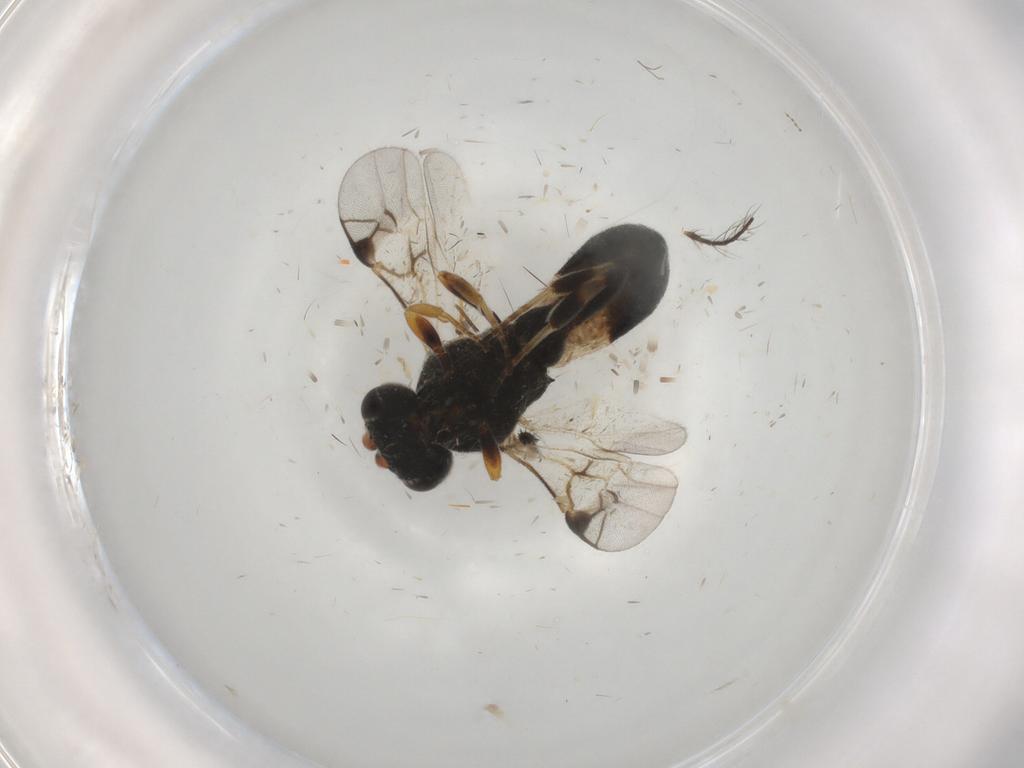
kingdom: Animalia
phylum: Arthropoda
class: Insecta
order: Hymenoptera
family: Braconidae
